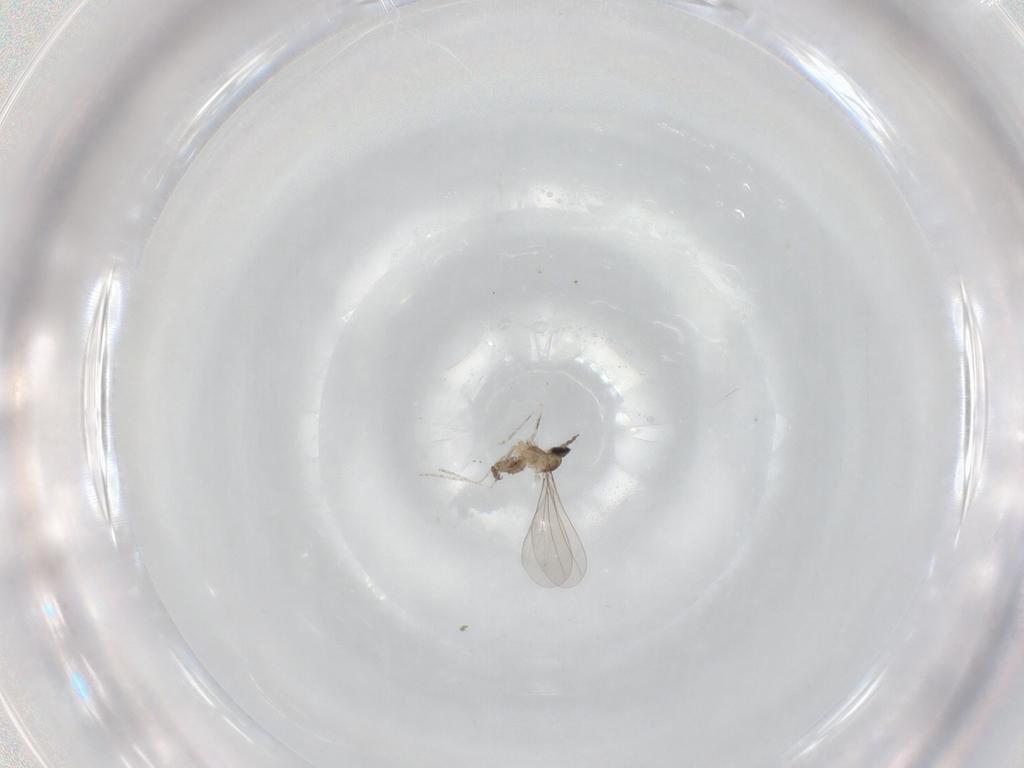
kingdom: Animalia
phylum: Arthropoda
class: Insecta
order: Diptera
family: Cecidomyiidae
